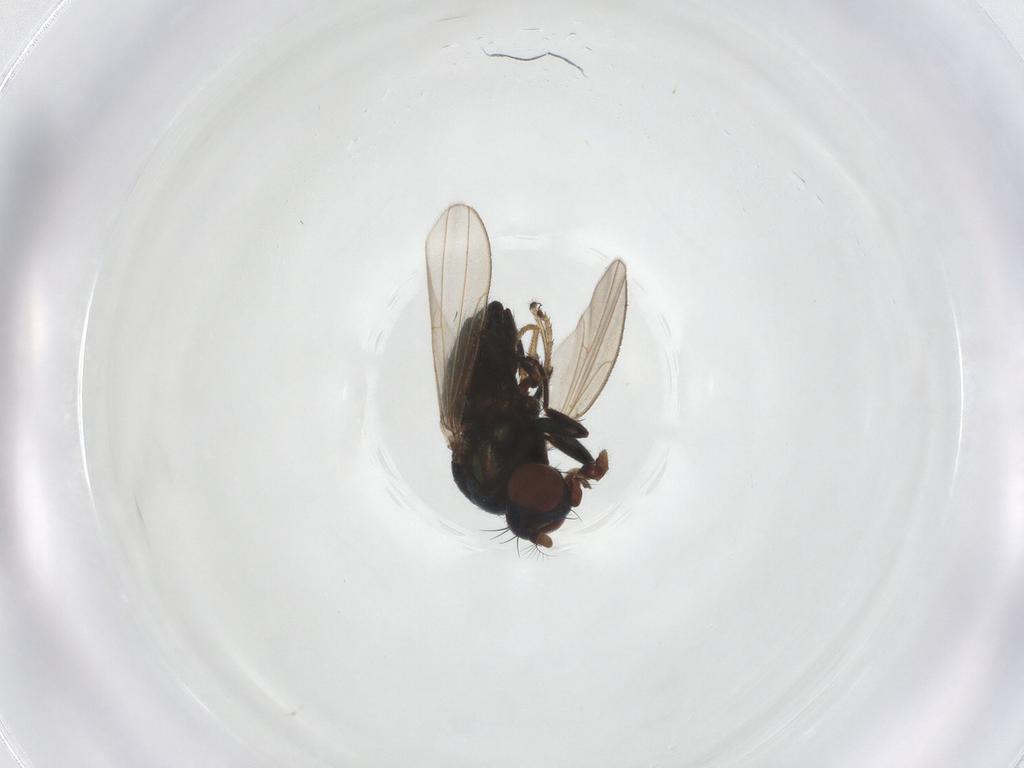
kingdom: Animalia
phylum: Arthropoda
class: Insecta
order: Diptera
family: Ephydridae
